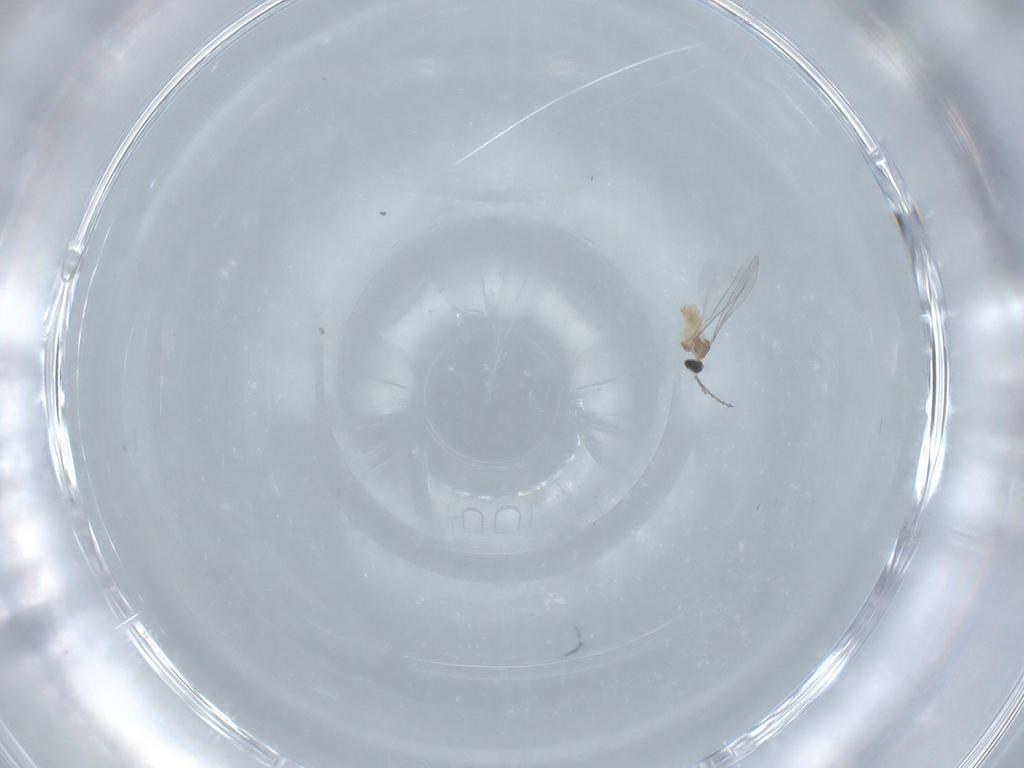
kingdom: Animalia
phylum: Arthropoda
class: Insecta
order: Diptera
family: Cecidomyiidae
